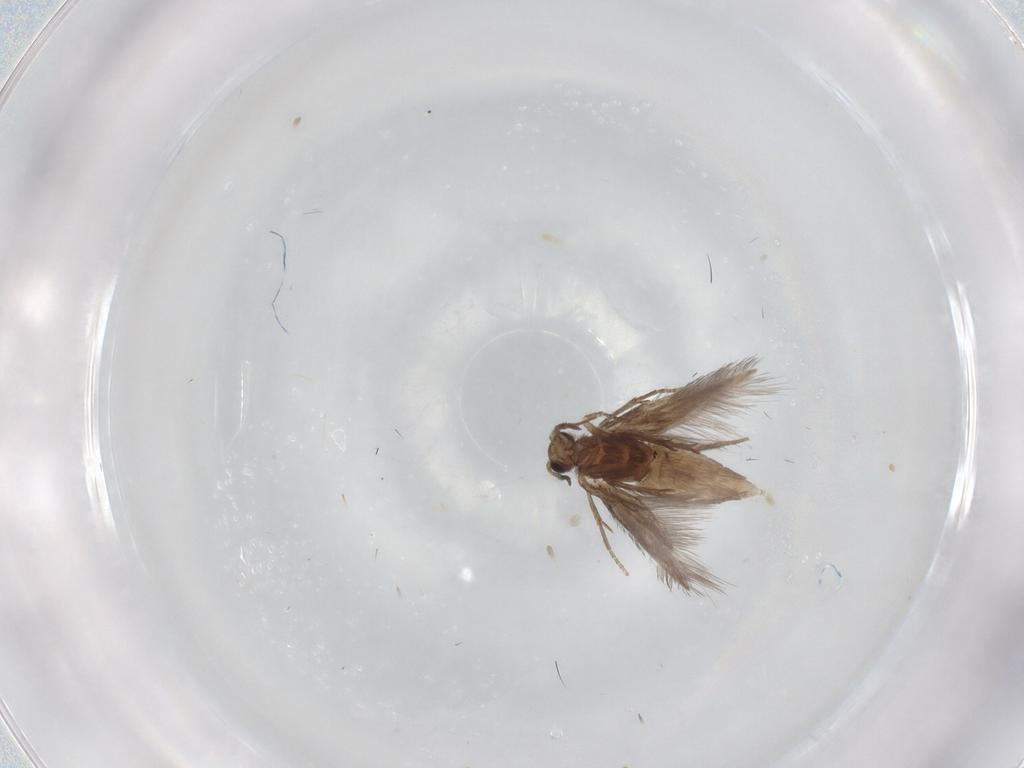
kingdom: Animalia
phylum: Arthropoda
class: Insecta
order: Trichoptera
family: Hydroptilidae
